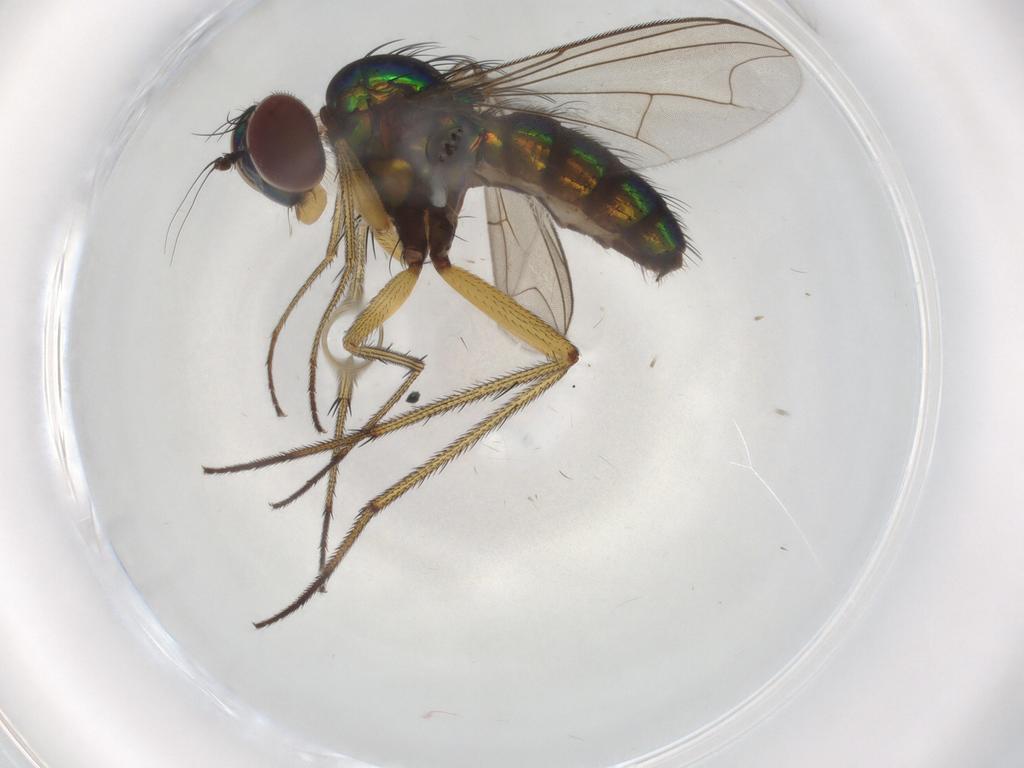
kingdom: Animalia
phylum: Arthropoda
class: Insecta
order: Diptera
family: Dolichopodidae
